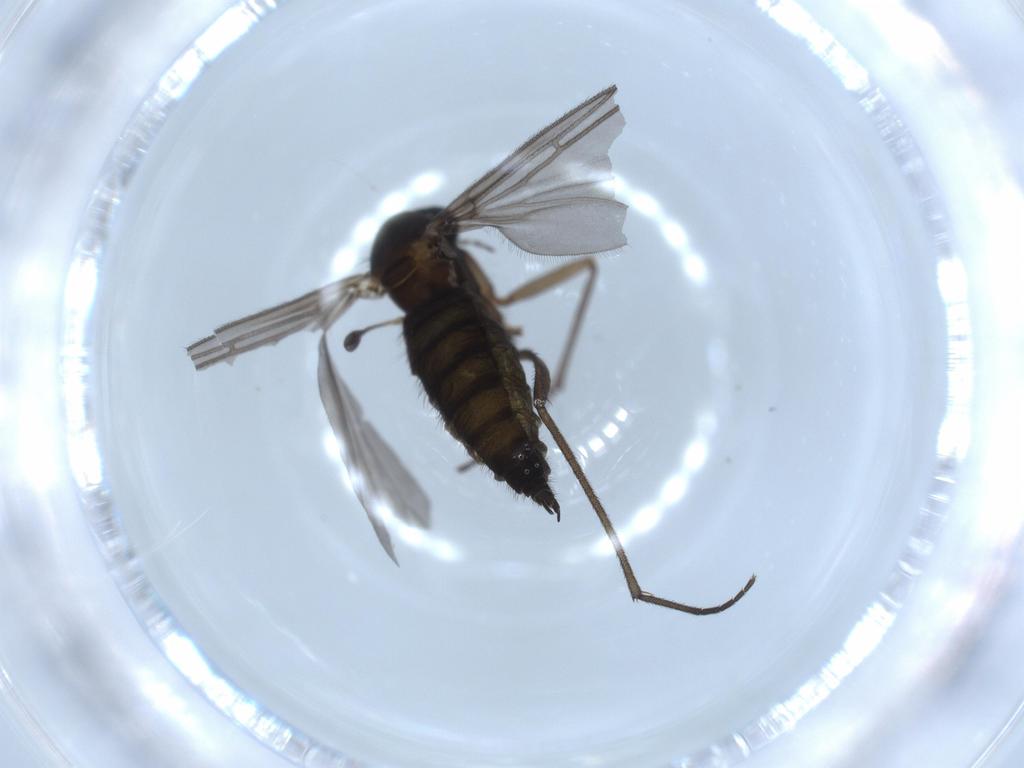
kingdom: Animalia
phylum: Arthropoda
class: Insecta
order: Diptera
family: Sciaridae
